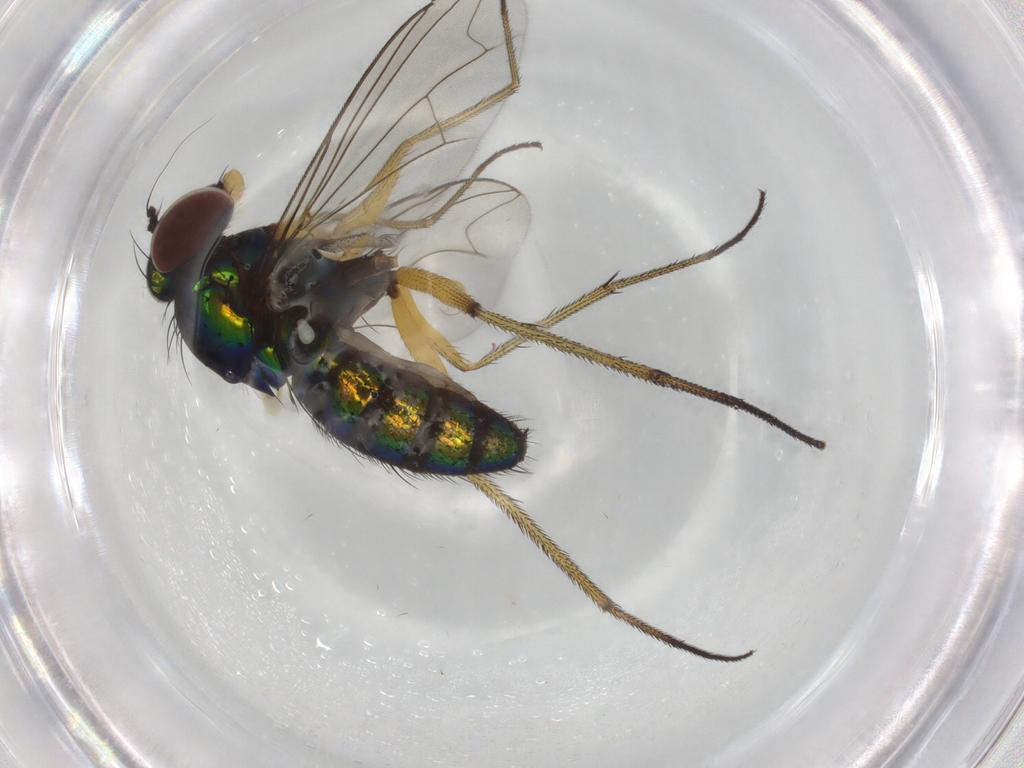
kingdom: Animalia
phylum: Arthropoda
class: Insecta
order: Diptera
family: Dolichopodidae
